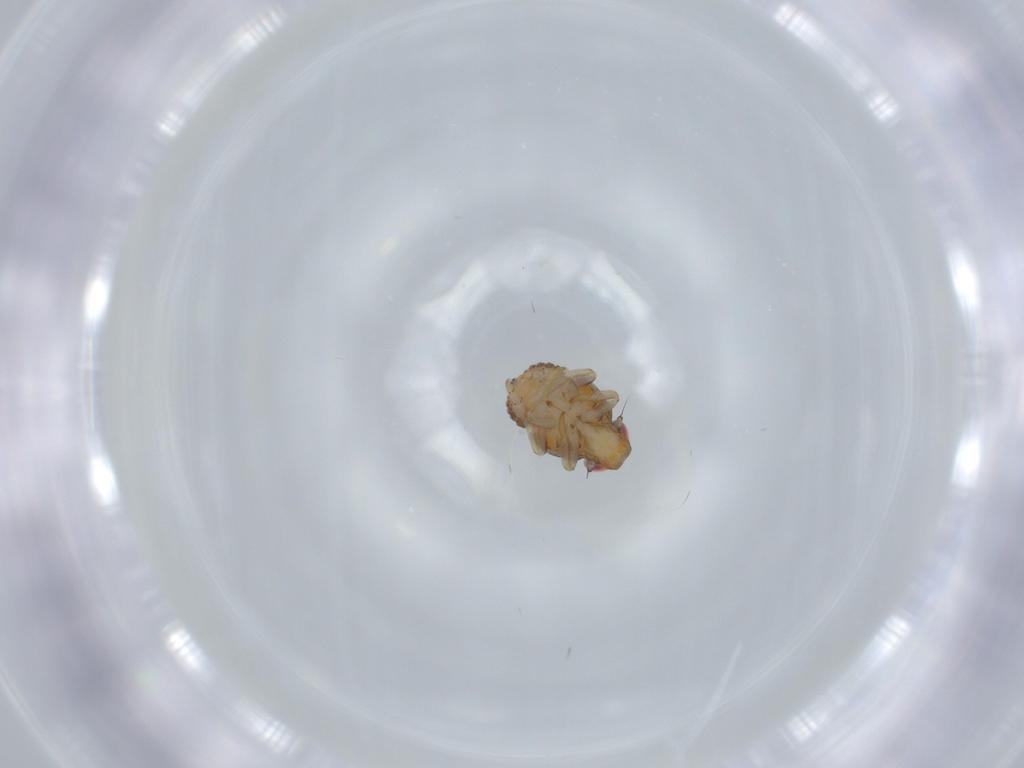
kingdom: Animalia
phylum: Arthropoda
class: Insecta
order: Hemiptera
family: Issidae
